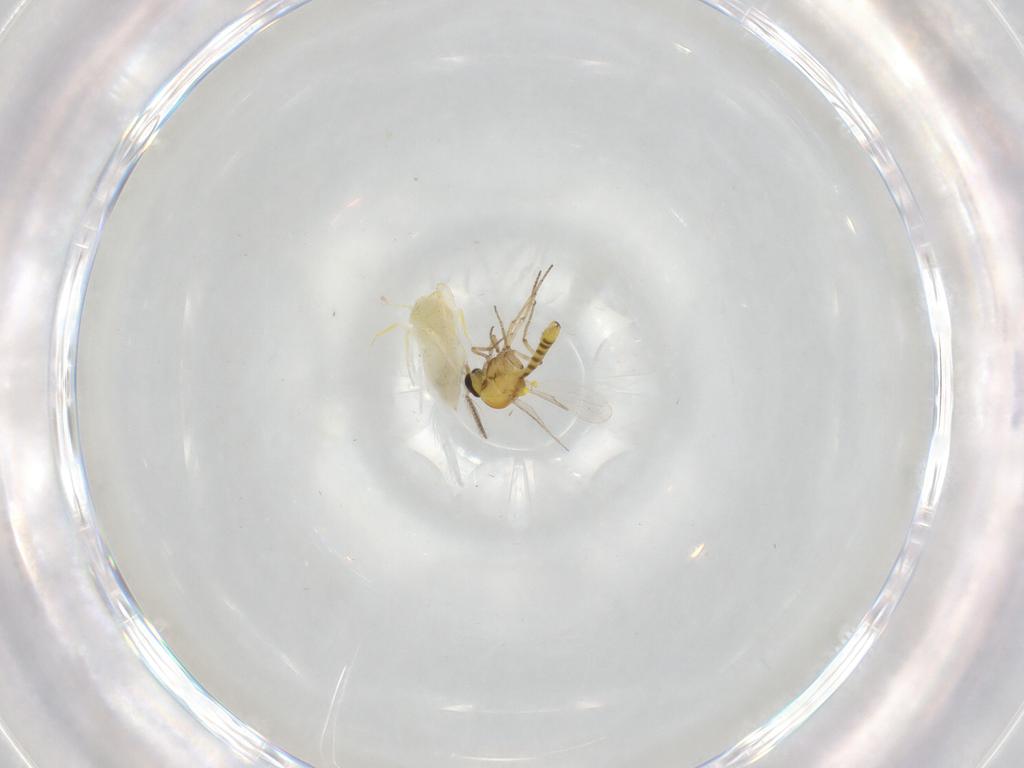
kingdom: Animalia
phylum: Arthropoda
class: Insecta
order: Diptera
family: Ceratopogonidae
